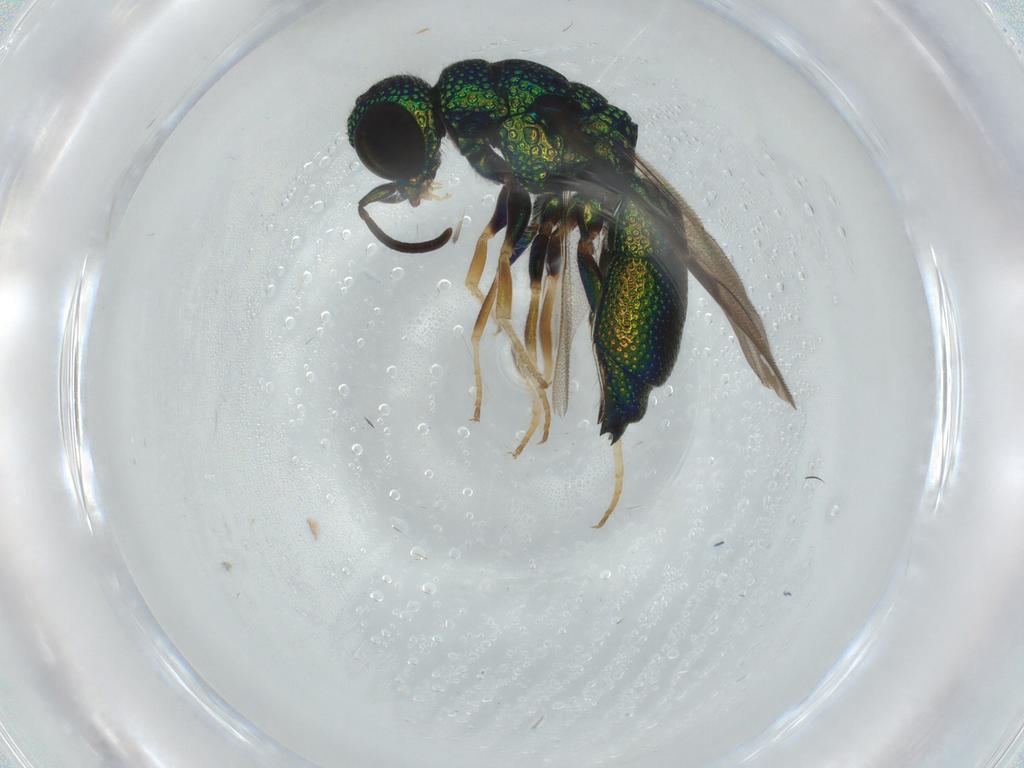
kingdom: Animalia
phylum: Arthropoda
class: Insecta
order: Hymenoptera
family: Chrysididae
